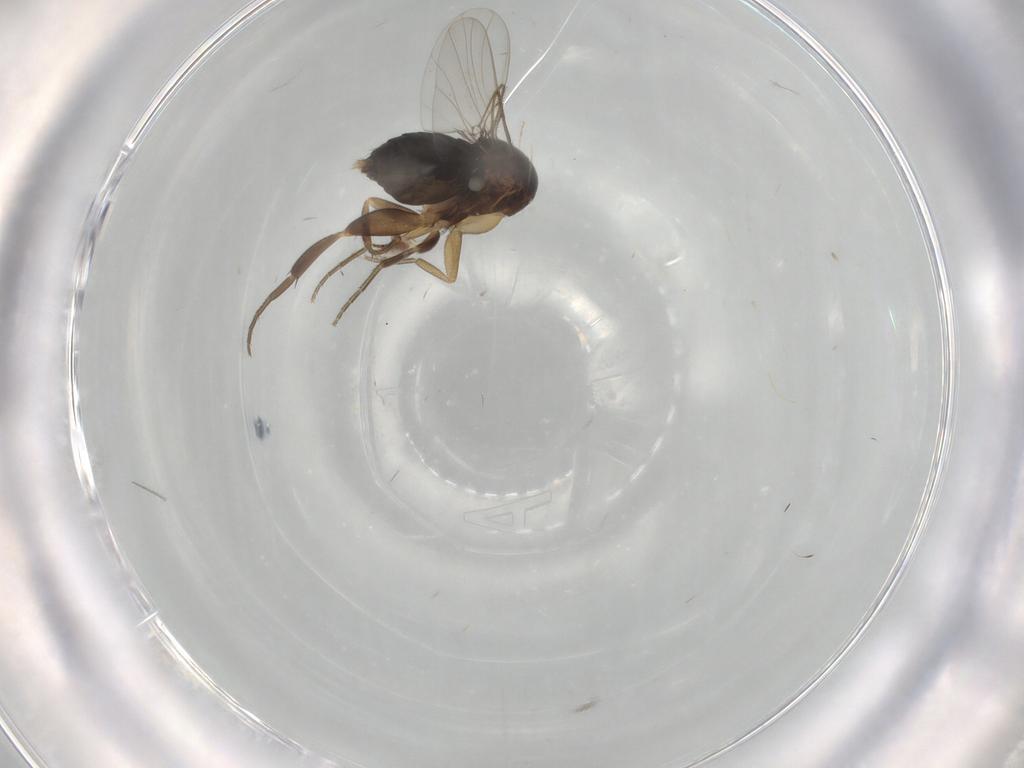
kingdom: Animalia
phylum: Arthropoda
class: Insecta
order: Diptera
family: Phoridae
